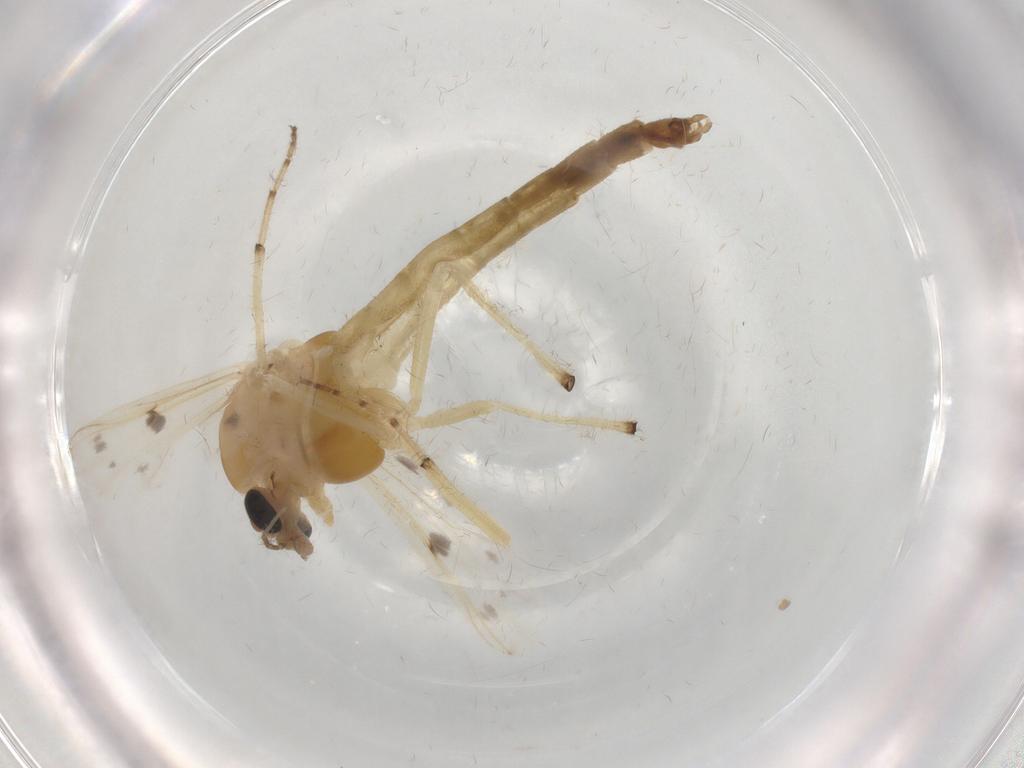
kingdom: Animalia
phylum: Arthropoda
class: Insecta
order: Diptera
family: Chironomidae
